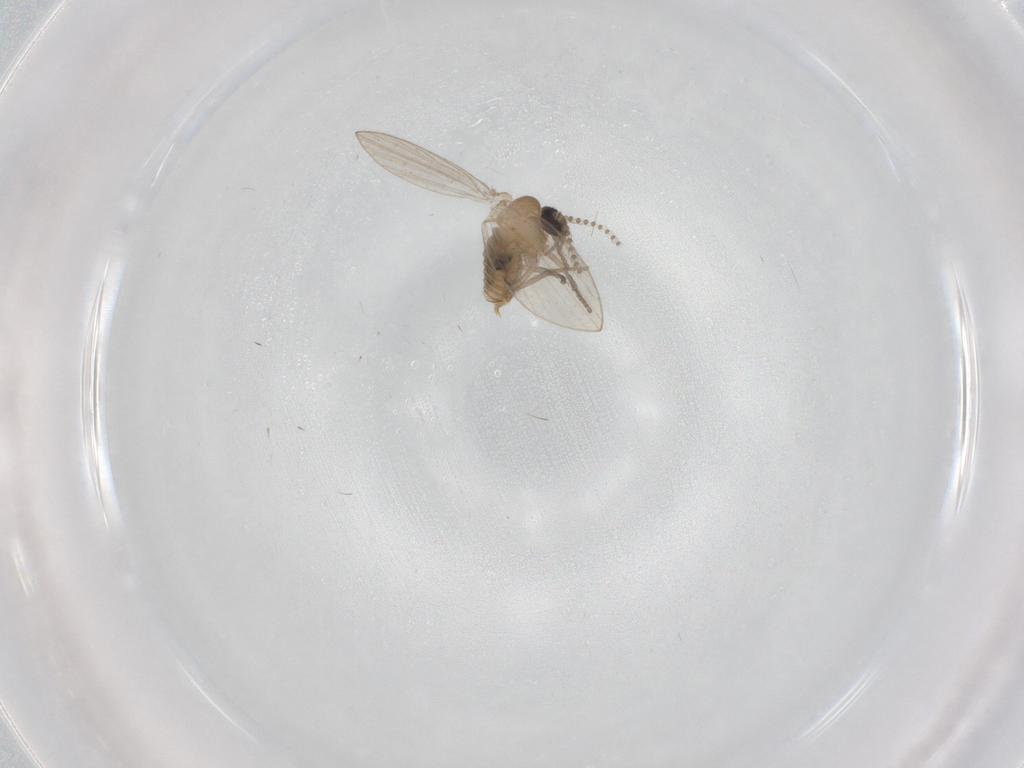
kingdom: Animalia
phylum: Arthropoda
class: Insecta
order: Diptera
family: Psychodidae
